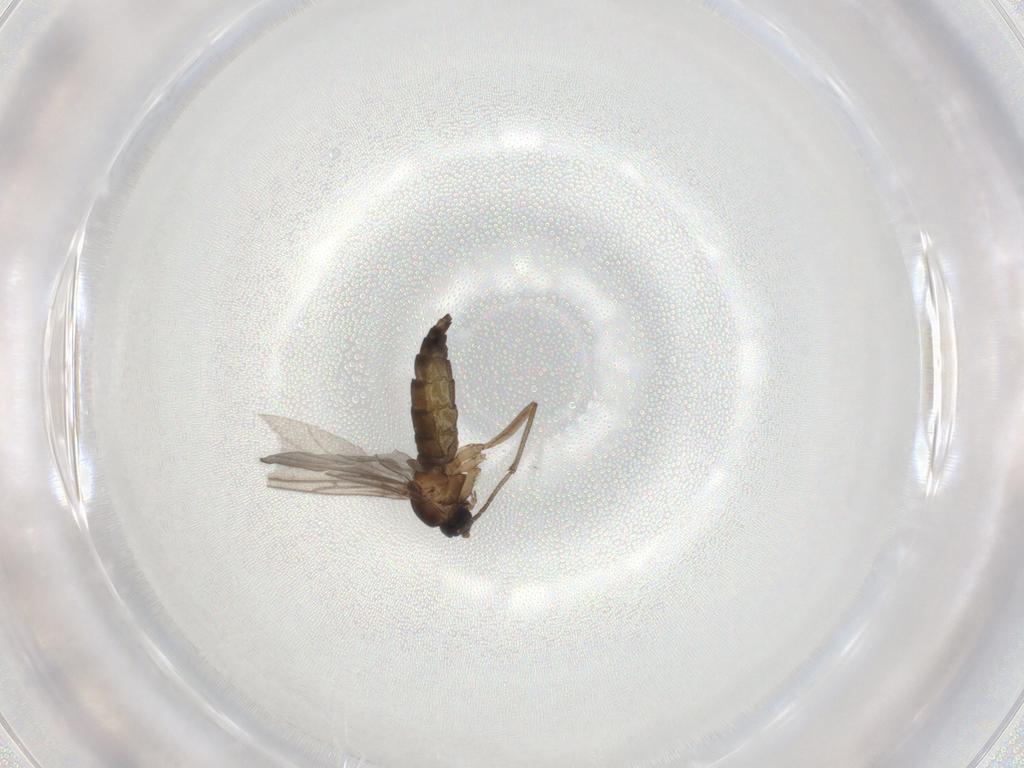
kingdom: Animalia
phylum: Arthropoda
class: Insecta
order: Diptera
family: Sciaridae
